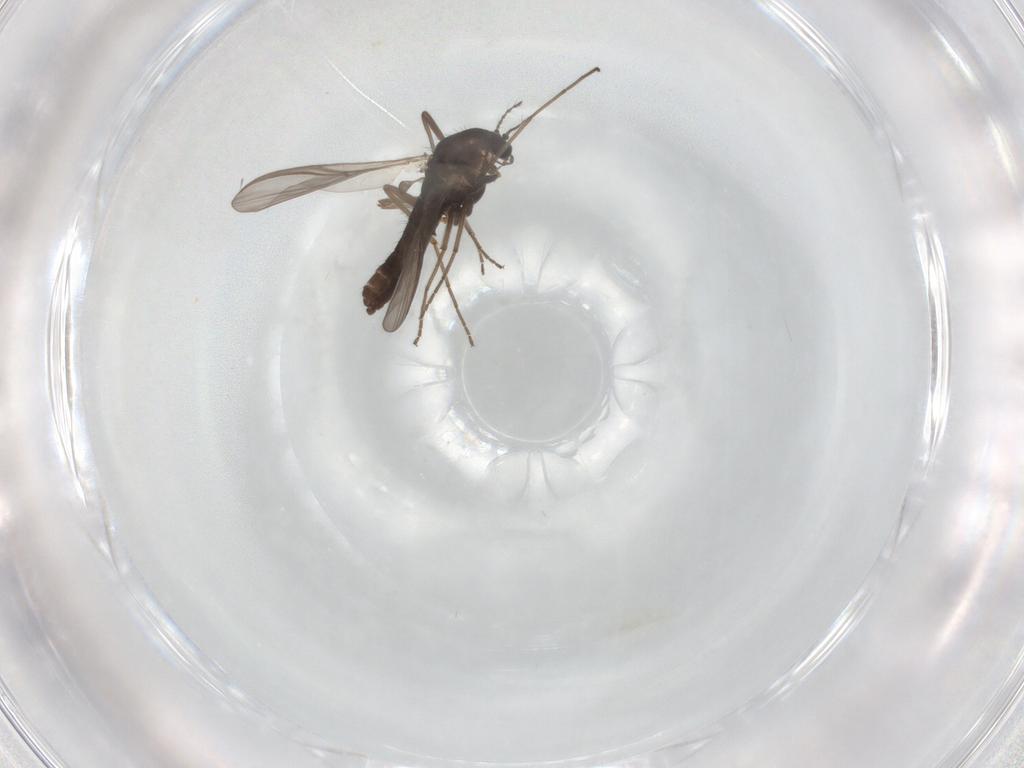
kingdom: Animalia
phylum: Arthropoda
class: Insecta
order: Diptera
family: Chironomidae
